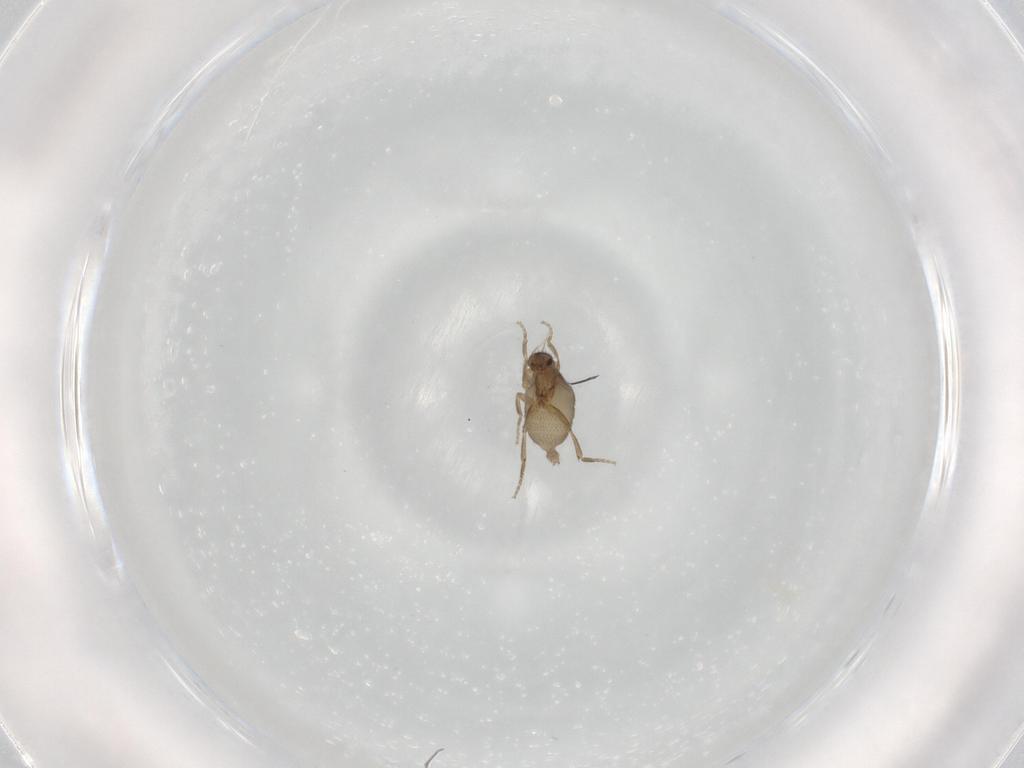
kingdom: Animalia
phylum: Arthropoda
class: Insecta
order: Diptera
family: Phoridae
